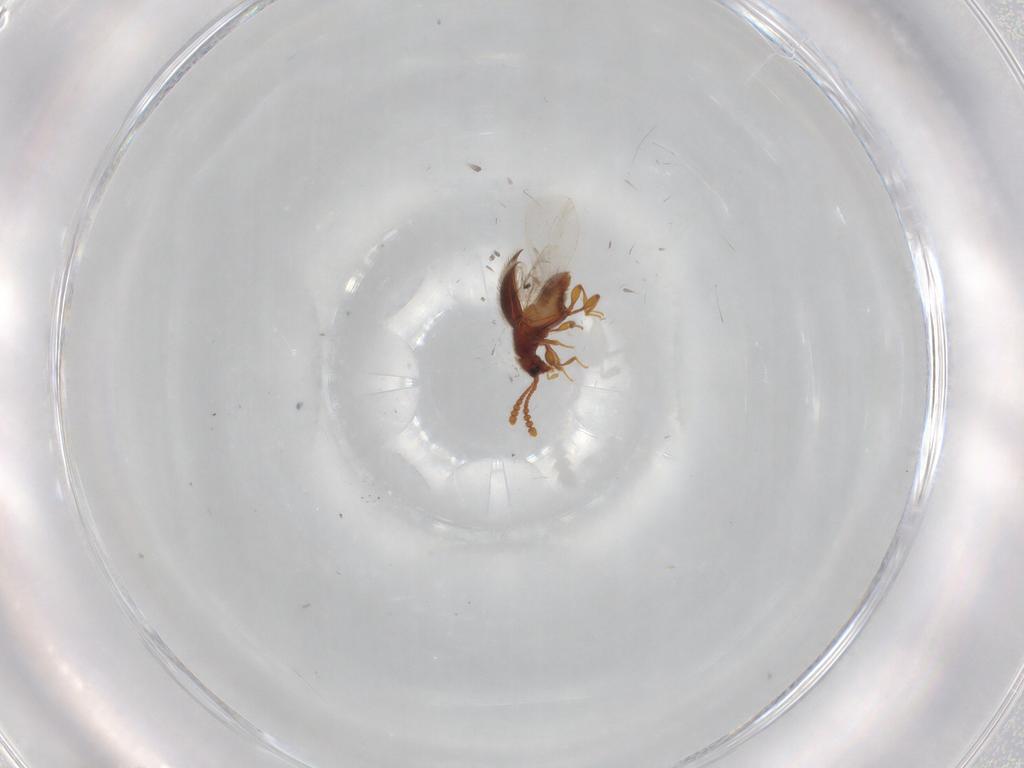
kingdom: Animalia
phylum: Arthropoda
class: Insecta
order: Coleoptera
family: Staphylinidae
